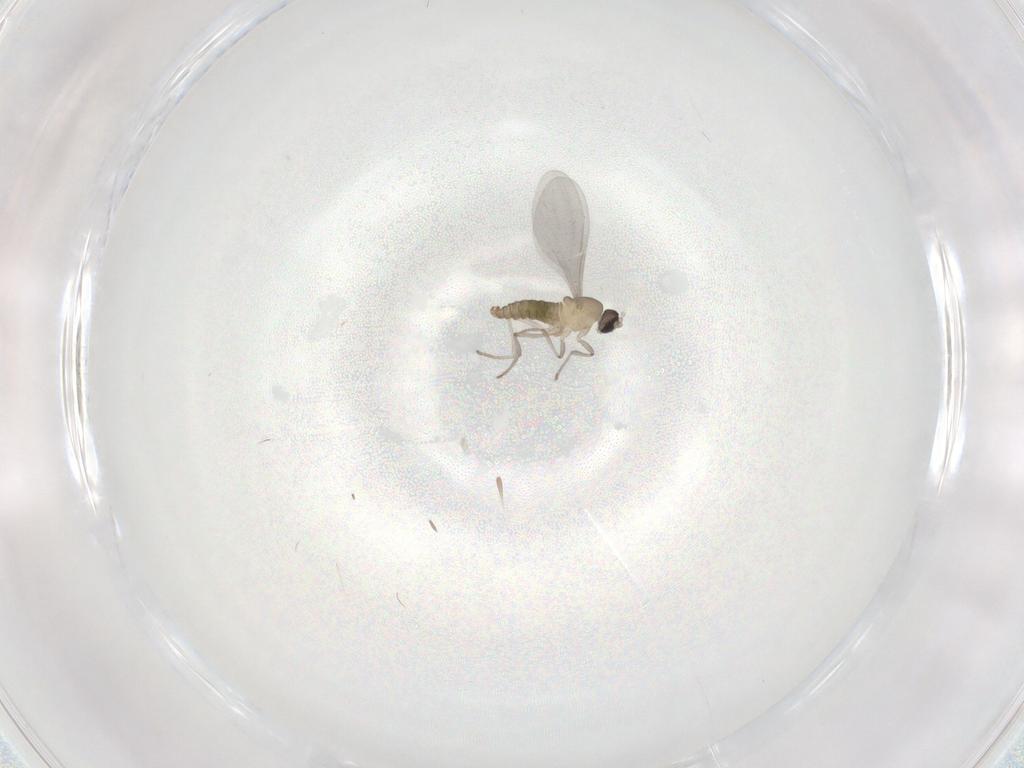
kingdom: Animalia
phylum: Arthropoda
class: Insecta
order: Diptera
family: Cecidomyiidae
